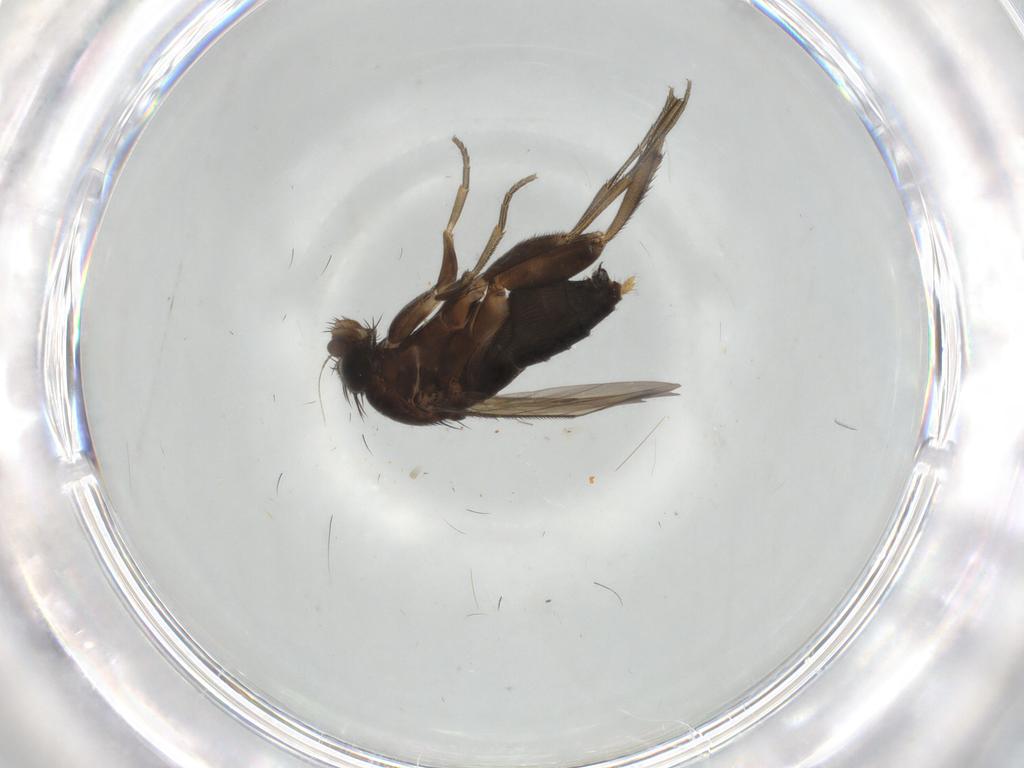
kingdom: Animalia
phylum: Arthropoda
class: Insecta
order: Diptera
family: Phoridae
